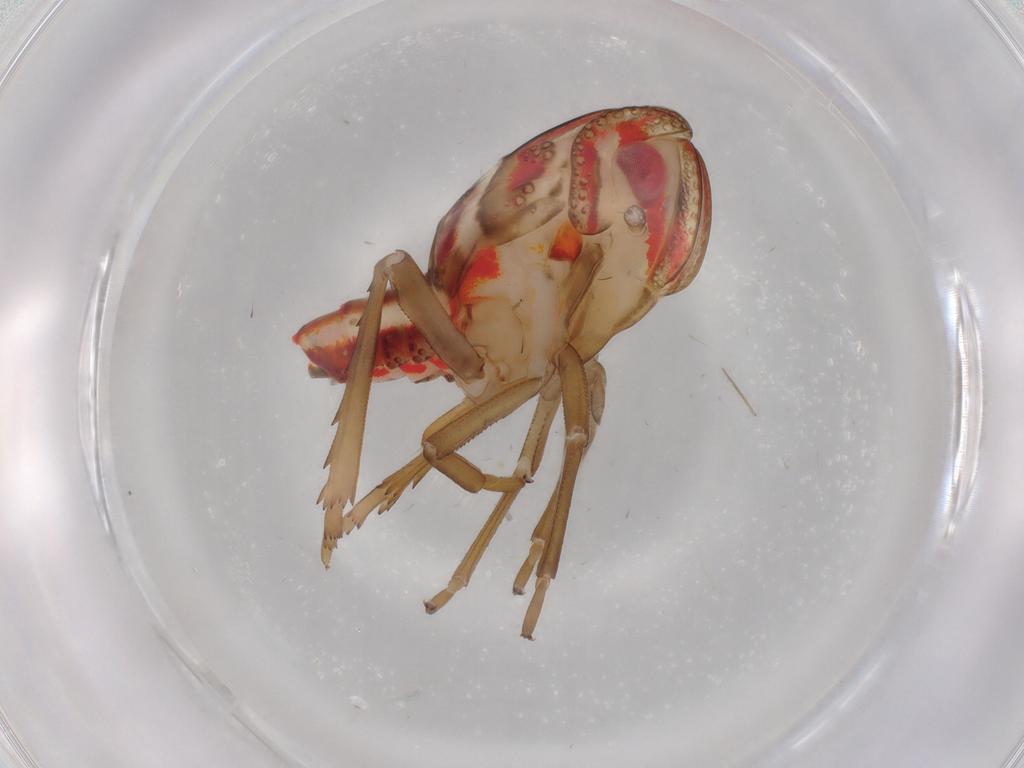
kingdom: Animalia
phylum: Arthropoda
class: Insecta
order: Hemiptera
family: Nogodinidae
